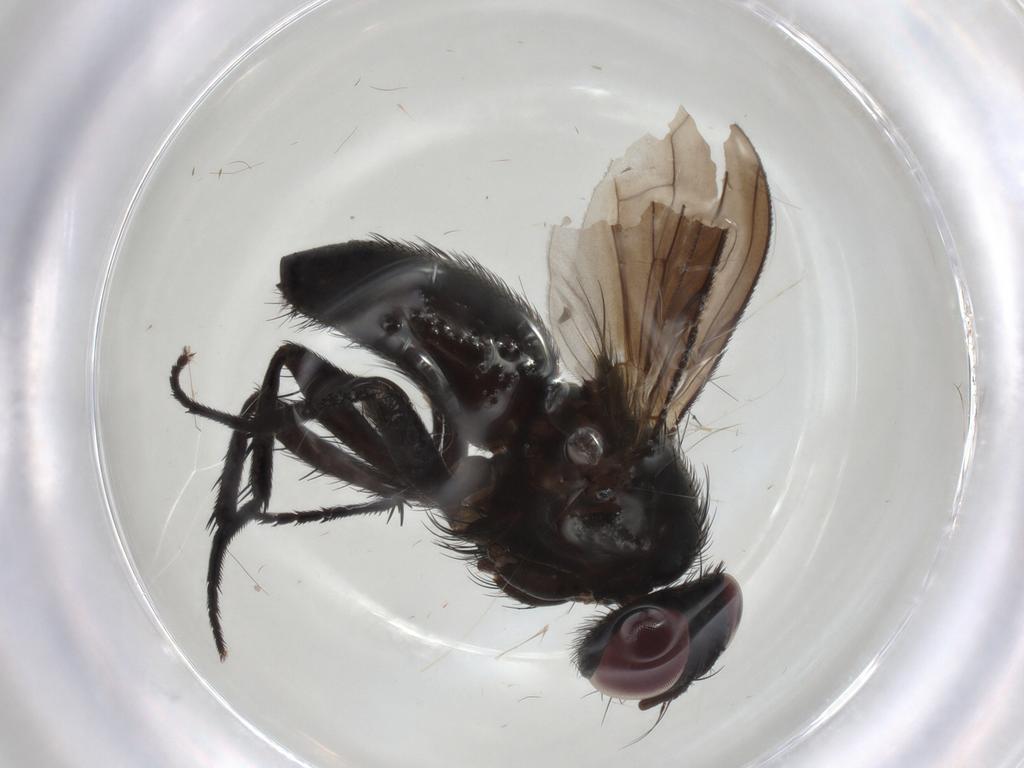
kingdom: Animalia
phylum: Arthropoda
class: Insecta
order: Diptera
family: Calliphoridae
